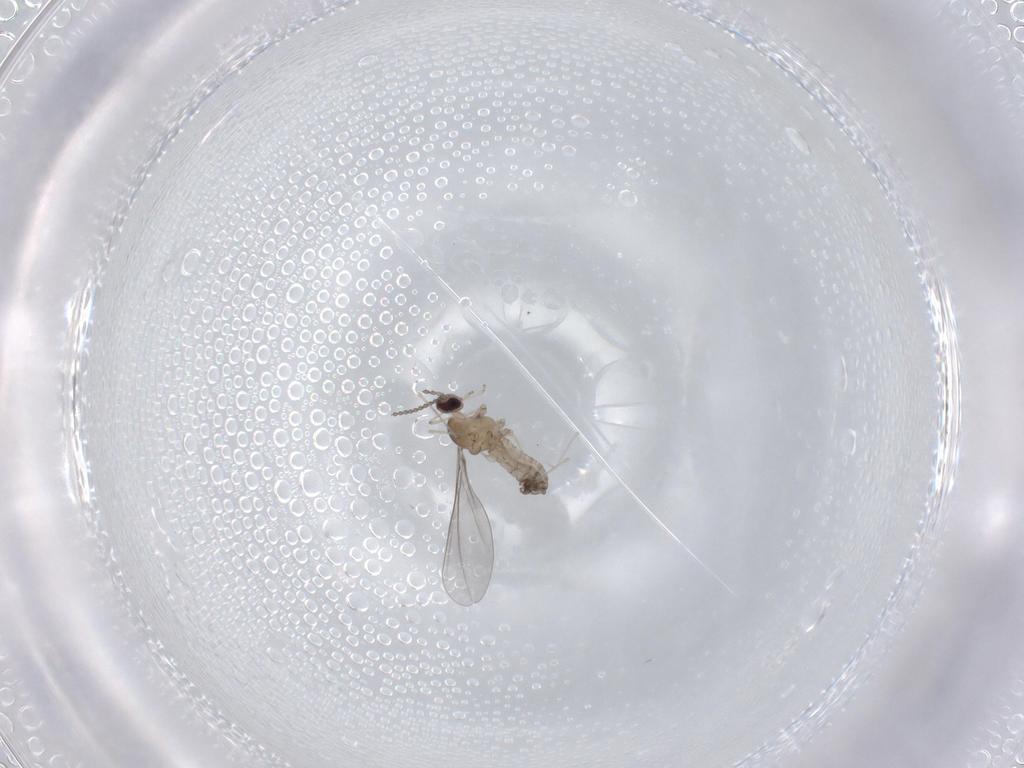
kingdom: Animalia
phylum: Arthropoda
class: Insecta
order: Diptera
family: Cecidomyiidae
